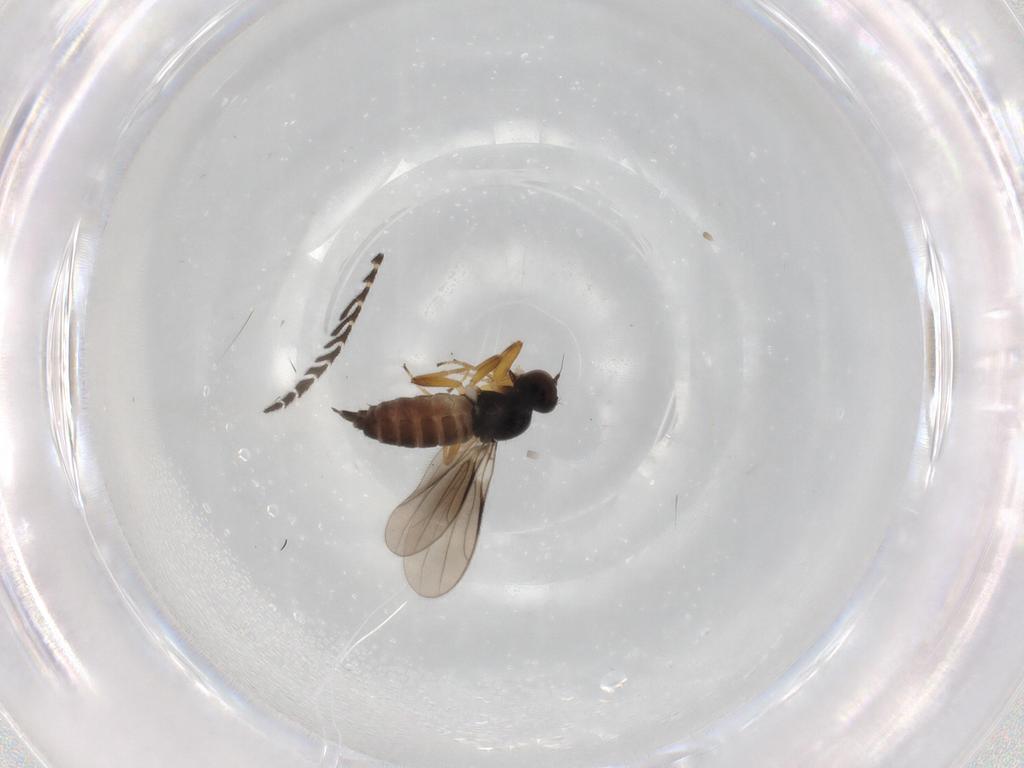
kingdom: Animalia
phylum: Arthropoda
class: Insecta
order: Diptera
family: Hybotidae
